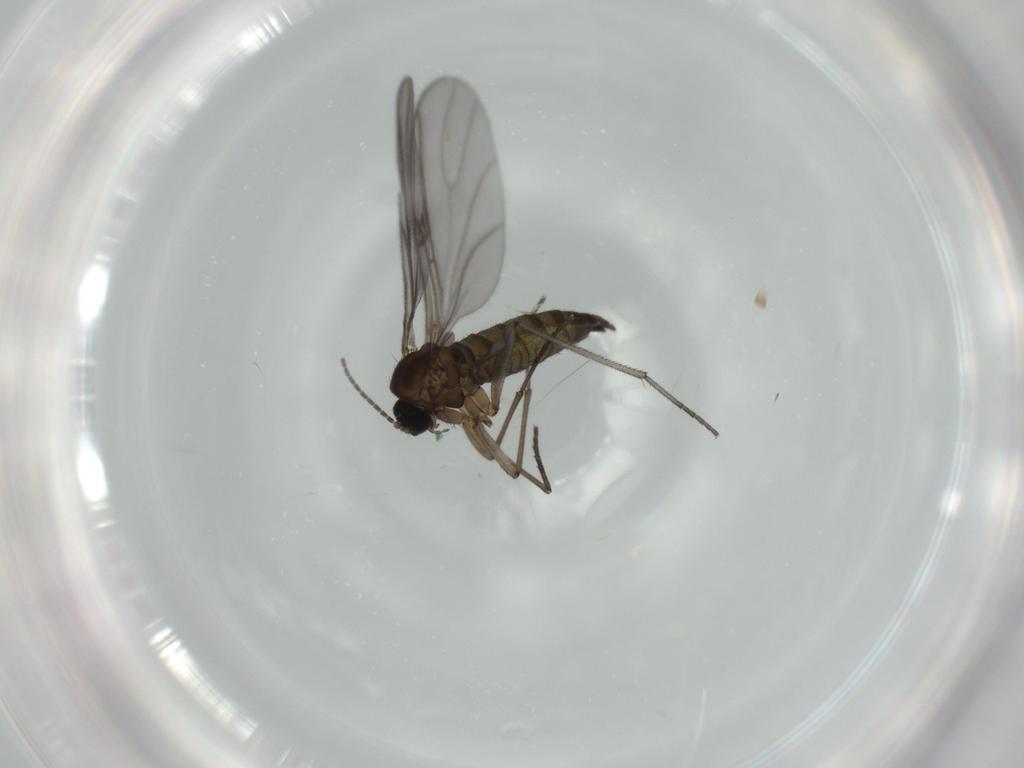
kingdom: Animalia
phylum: Arthropoda
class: Insecta
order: Diptera
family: Sciaridae
